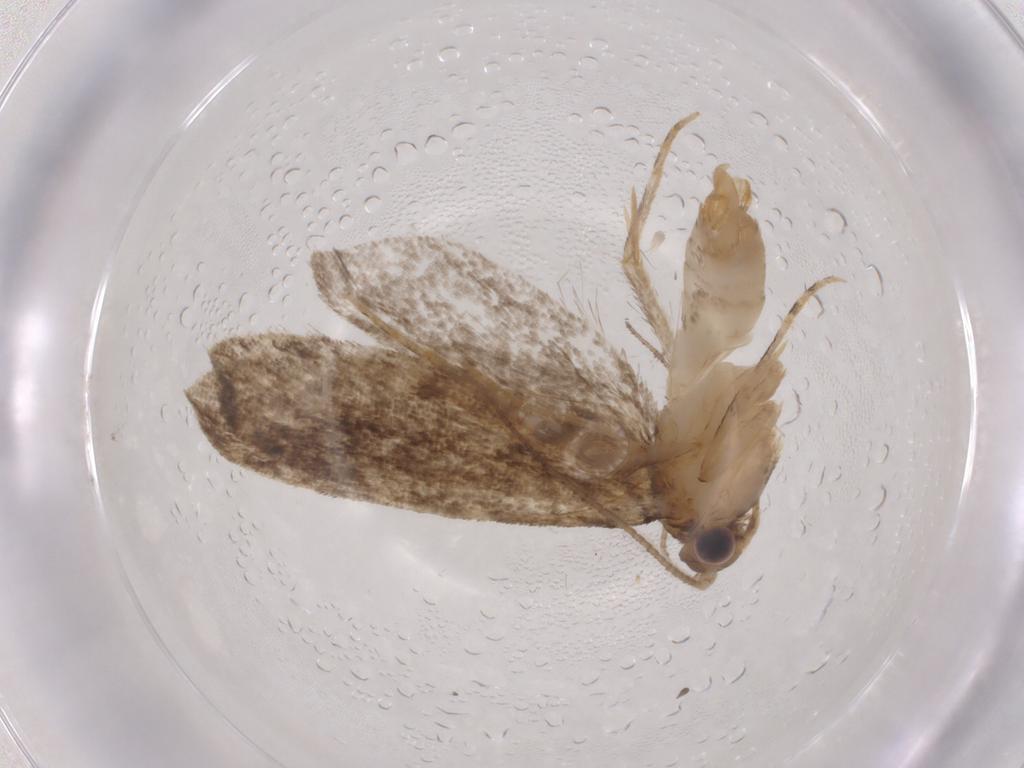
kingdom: Animalia
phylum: Arthropoda
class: Insecta
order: Lepidoptera
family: Tineidae
